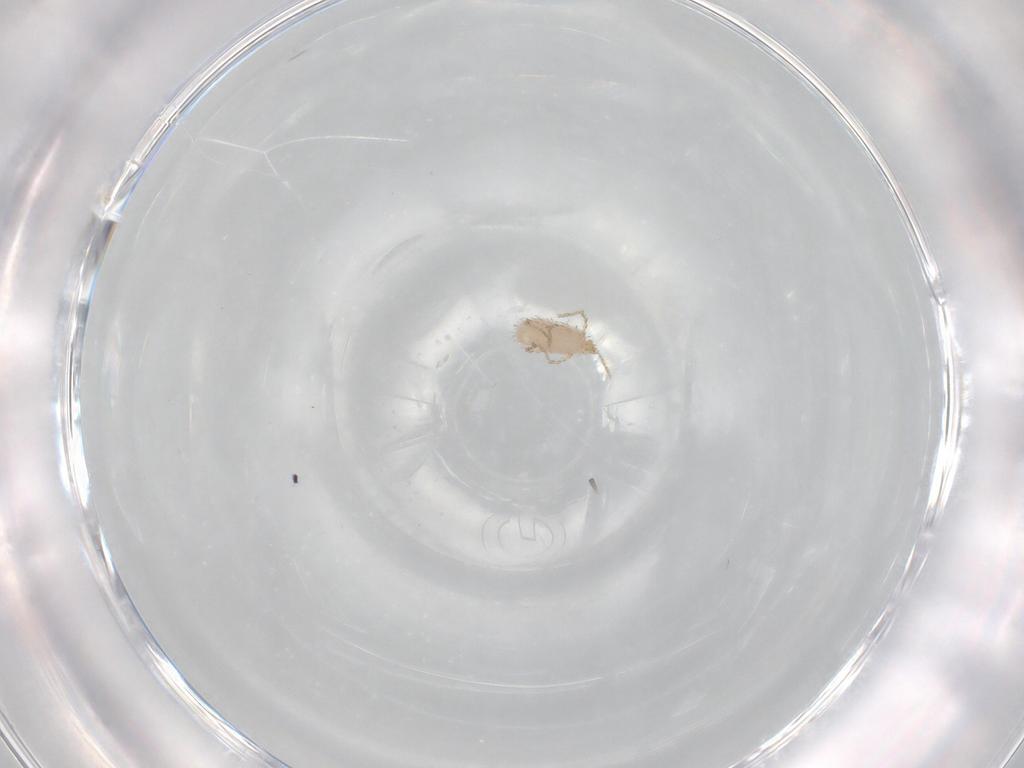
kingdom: Animalia
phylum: Arthropoda
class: Arachnida
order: Trombidiformes
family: Erythraeidae
